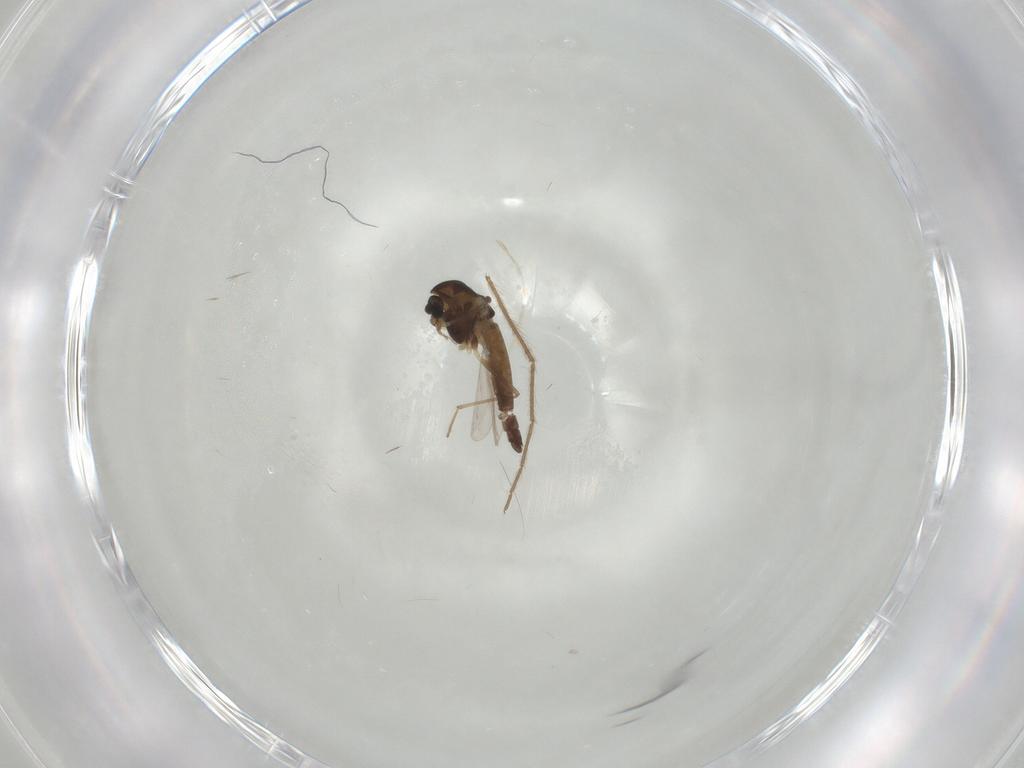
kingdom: Animalia
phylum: Arthropoda
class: Insecta
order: Diptera
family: Chironomidae
